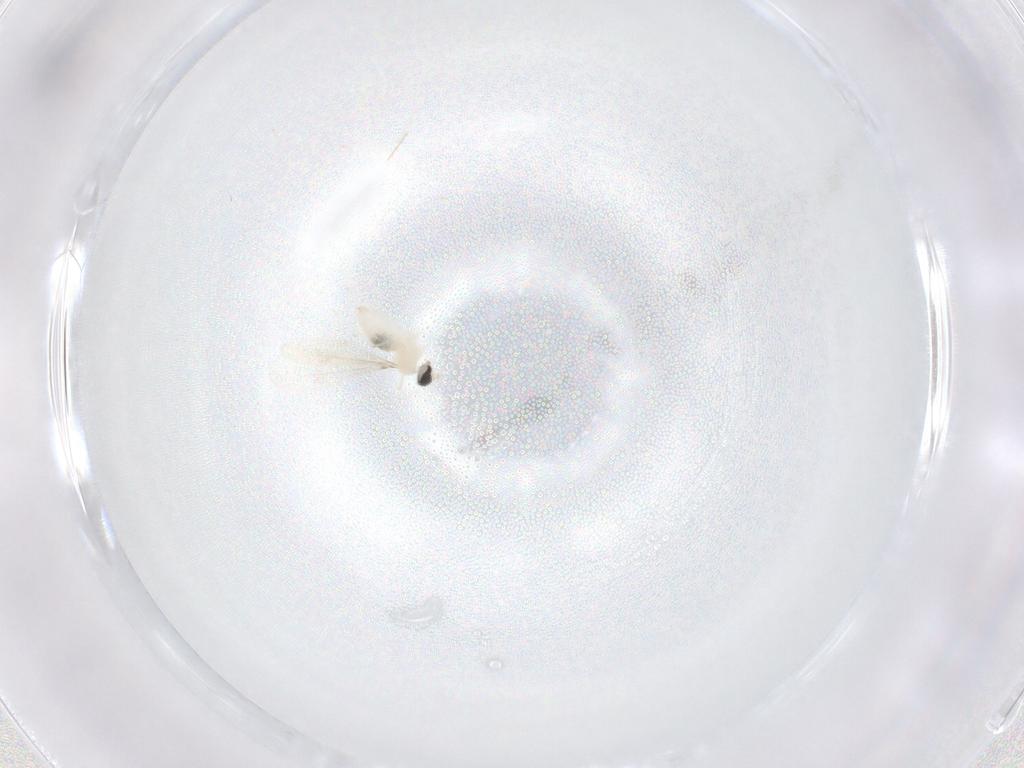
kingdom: Animalia
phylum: Arthropoda
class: Insecta
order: Diptera
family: Cecidomyiidae
